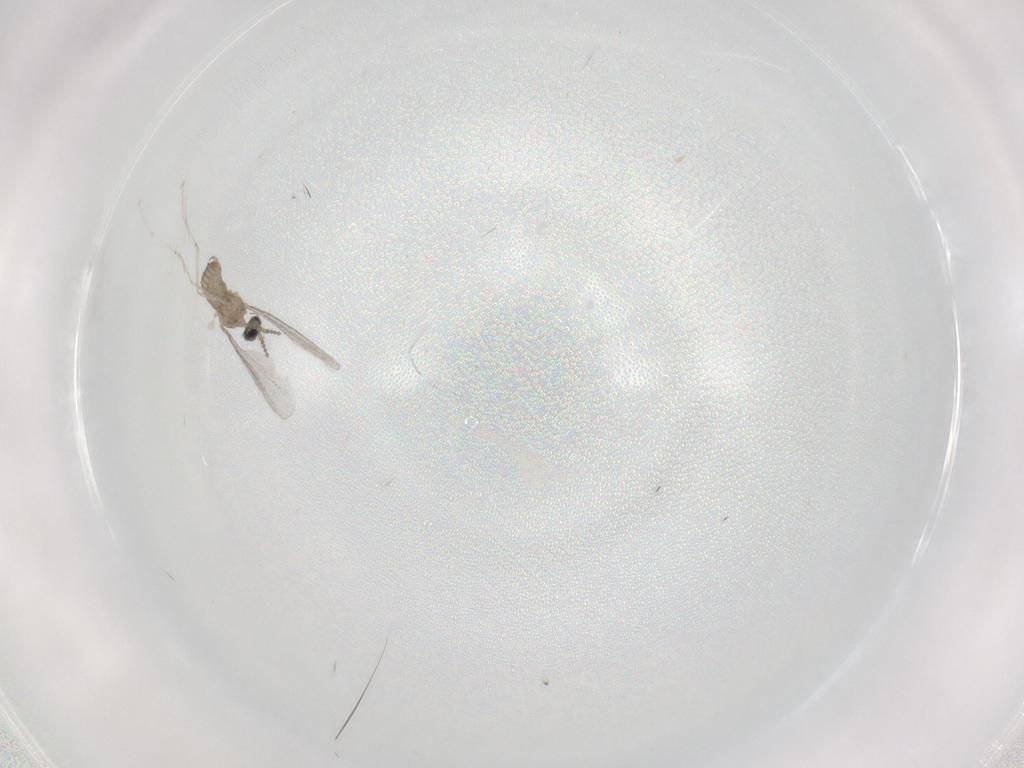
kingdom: Animalia
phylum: Arthropoda
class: Insecta
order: Diptera
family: Cecidomyiidae
